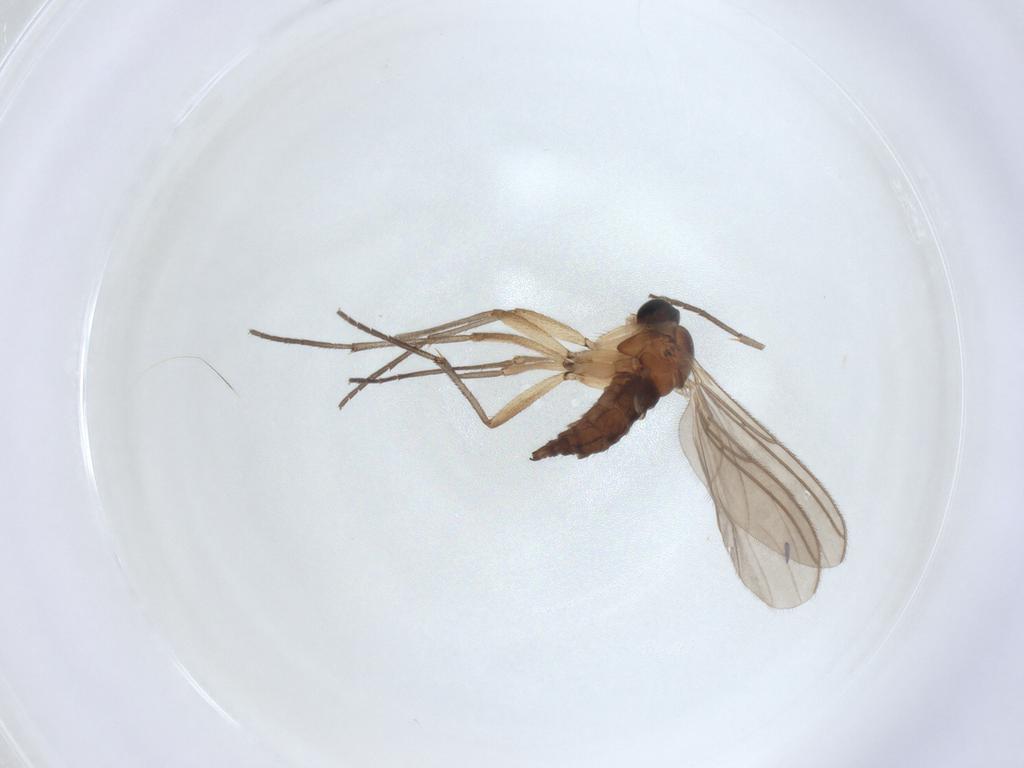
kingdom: Animalia
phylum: Arthropoda
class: Insecta
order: Diptera
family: Sciaridae
